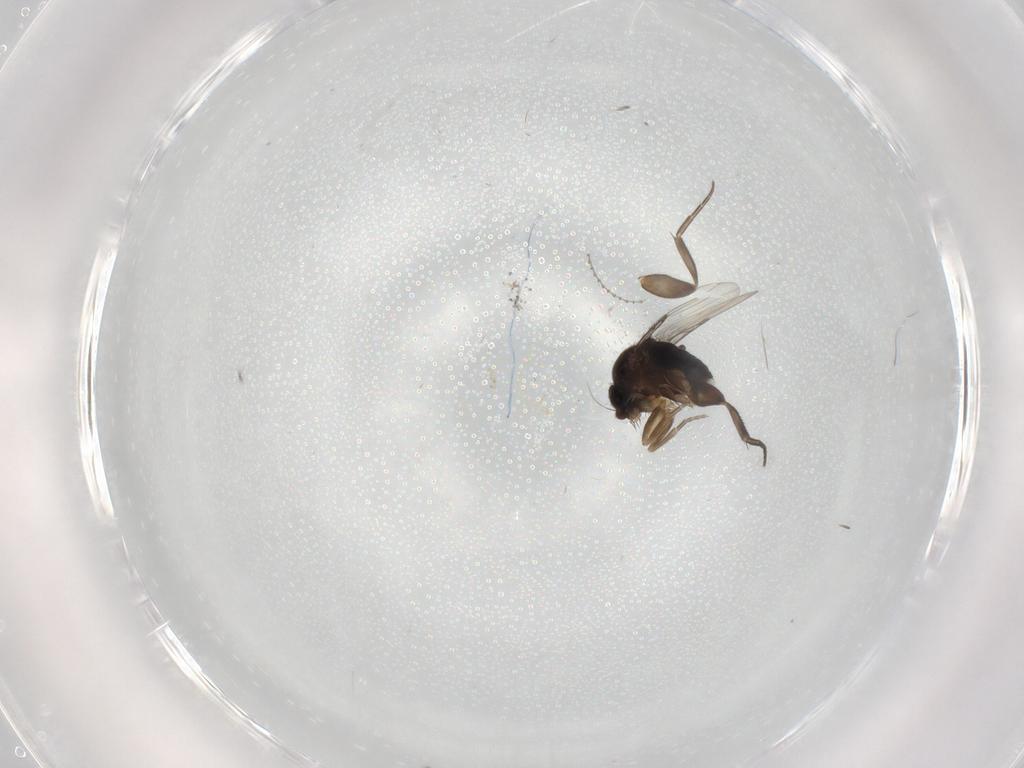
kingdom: Animalia
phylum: Arthropoda
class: Insecta
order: Diptera
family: Phoridae
